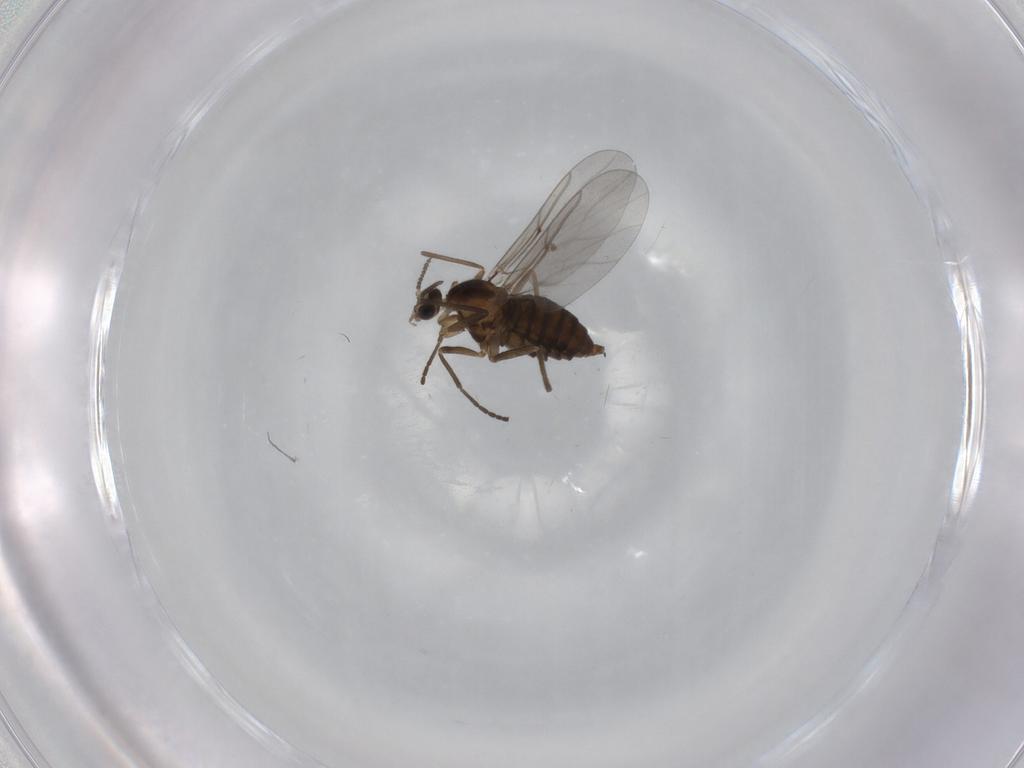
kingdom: Animalia
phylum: Arthropoda
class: Insecta
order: Diptera
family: Cecidomyiidae
